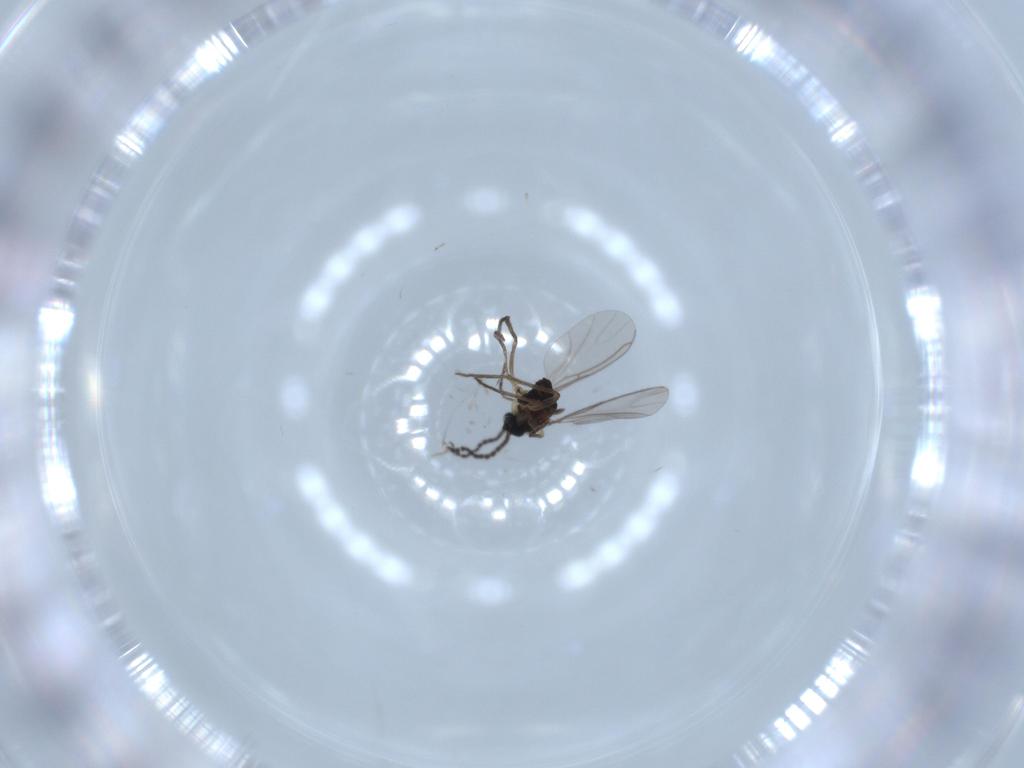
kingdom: Animalia
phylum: Arthropoda
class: Insecta
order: Diptera
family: Sciaridae
